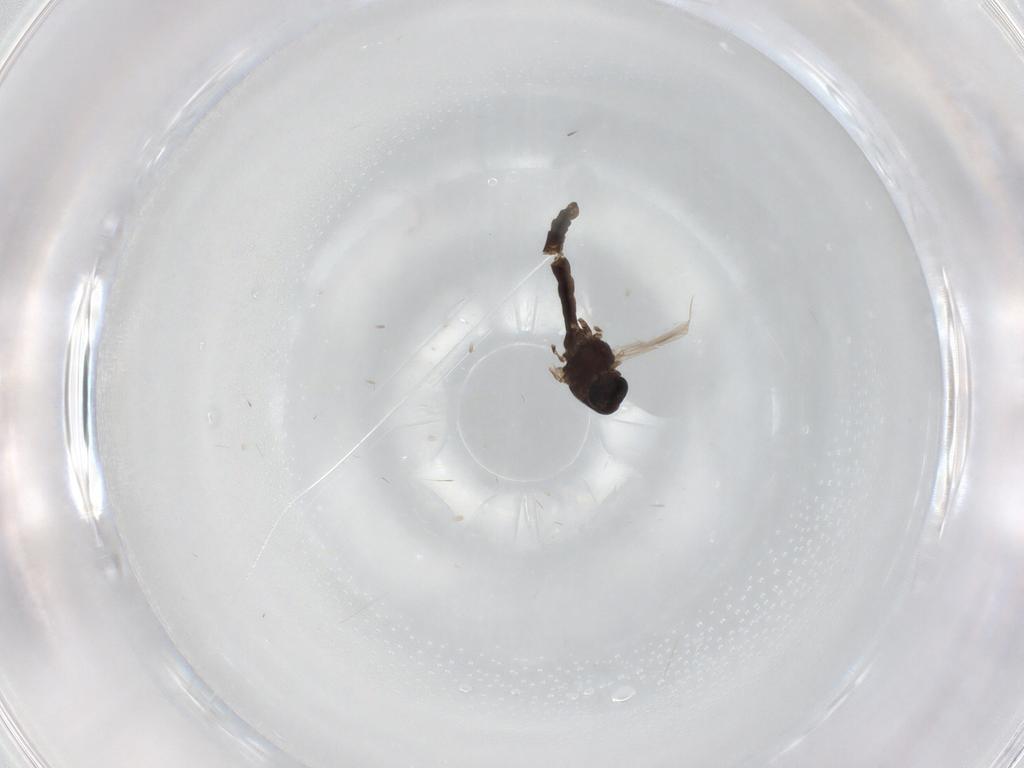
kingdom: Animalia
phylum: Arthropoda
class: Insecta
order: Diptera
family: Chironomidae
